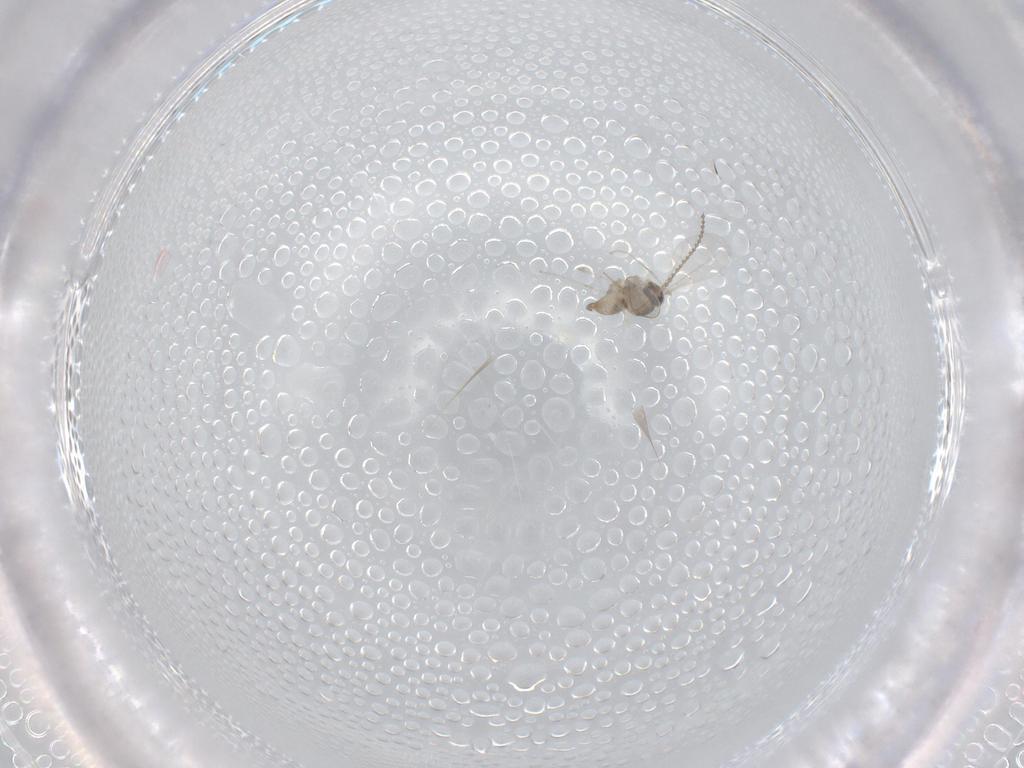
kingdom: Animalia
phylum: Arthropoda
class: Insecta
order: Diptera
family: Cecidomyiidae
